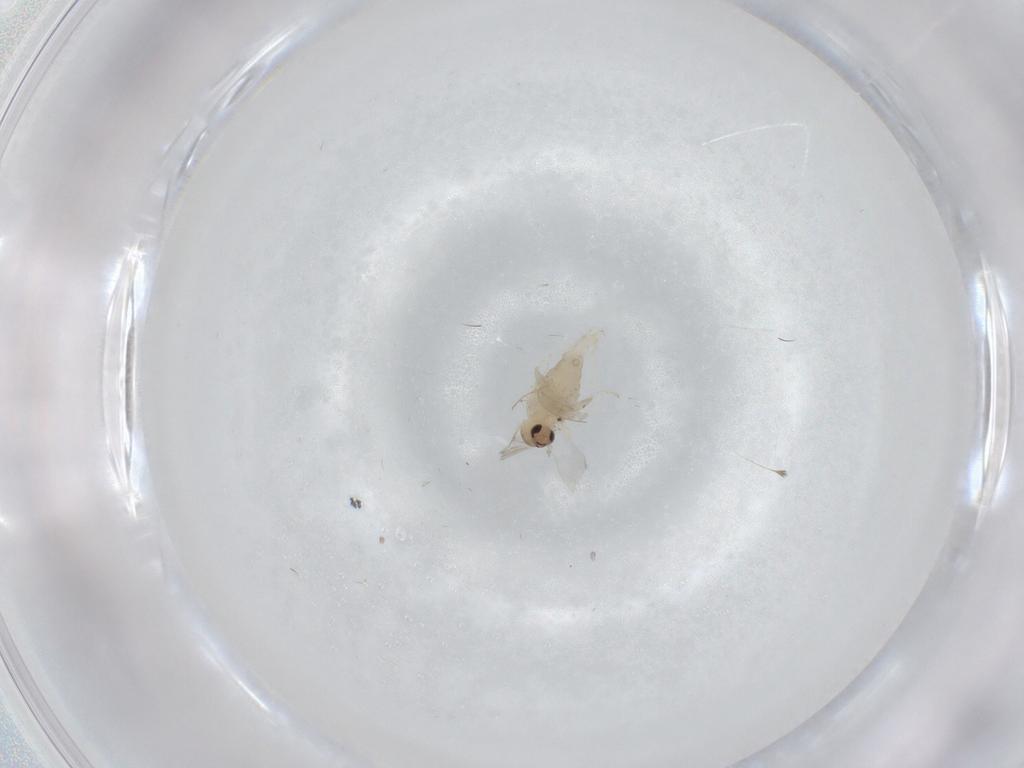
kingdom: Animalia
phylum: Arthropoda
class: Insecta
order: Diptera
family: Cecidomyiidae
